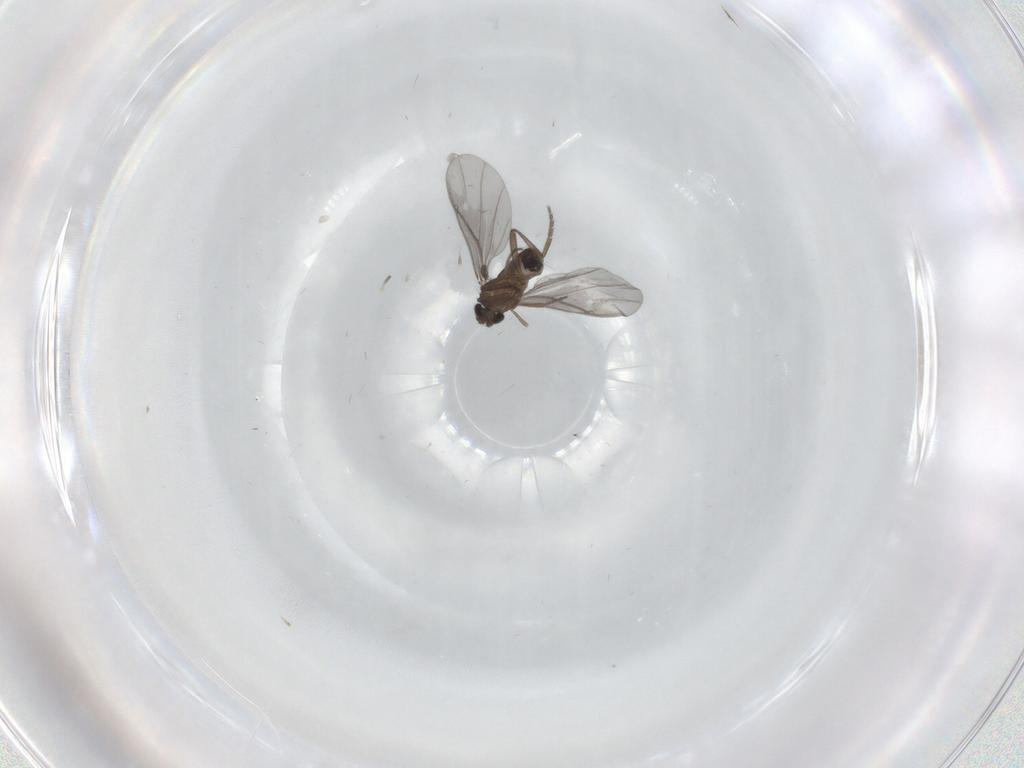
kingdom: Animalia
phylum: Arthropoda
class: Insecta
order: Diptera
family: Phoridae
